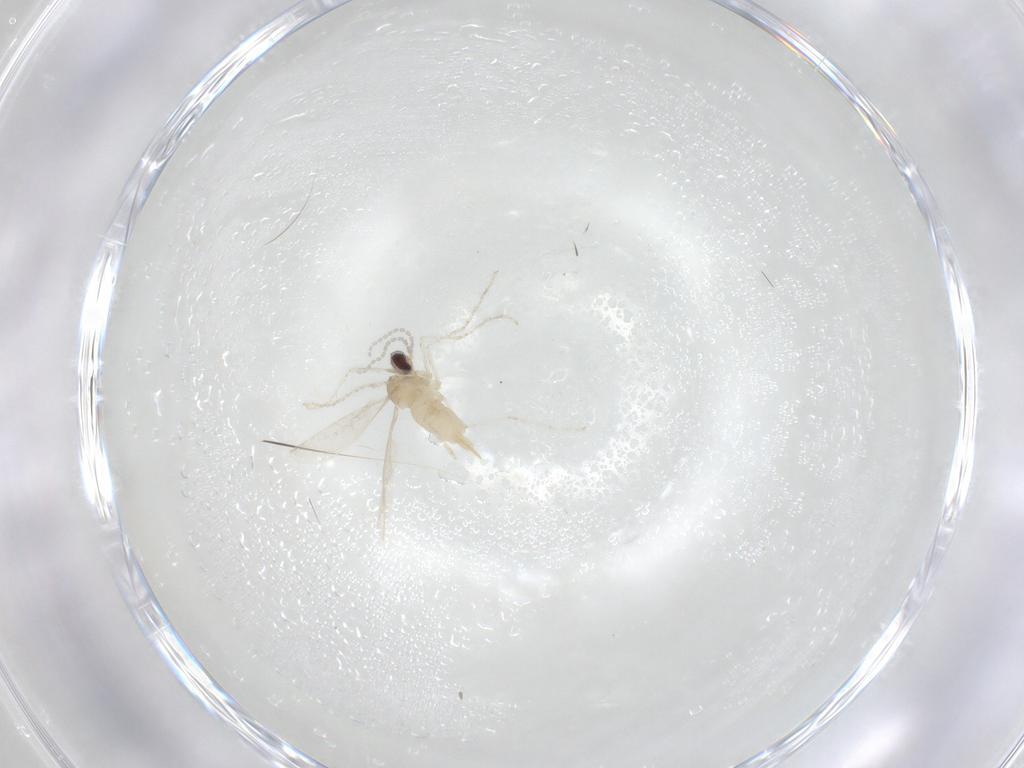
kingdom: Animalia
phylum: Arthropoda
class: Insecta
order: Diptera
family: Cecidomyiidae
